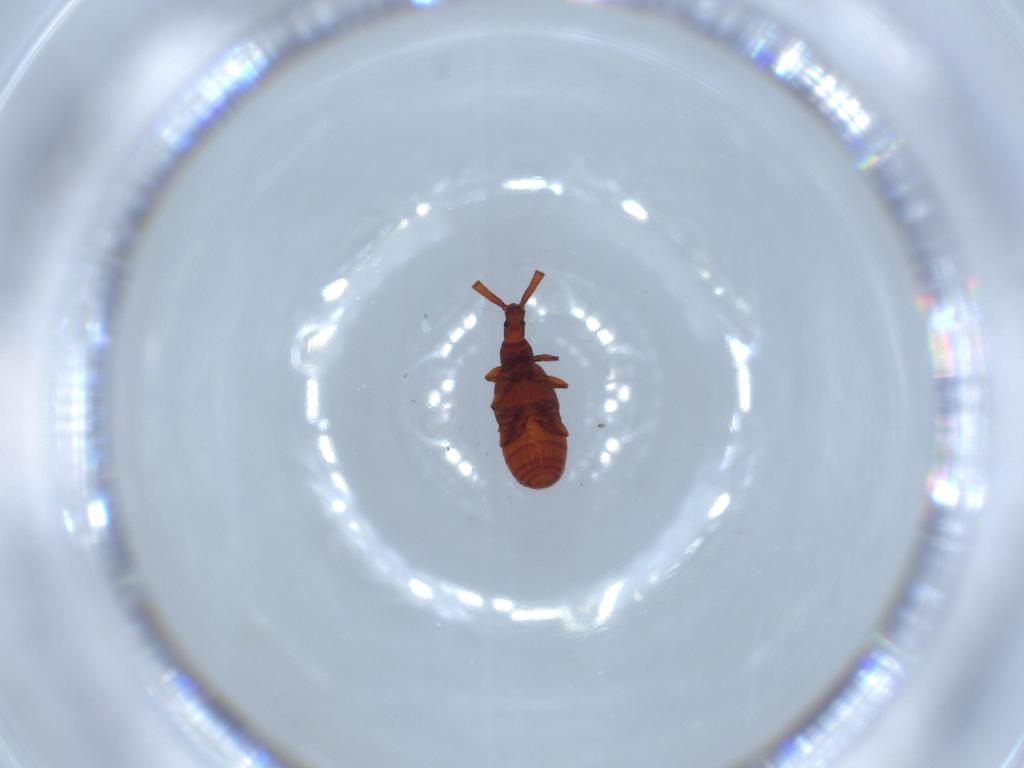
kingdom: Animalia
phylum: Arthropoda
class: Insecta
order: Coleoptera
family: Staphylinidae
